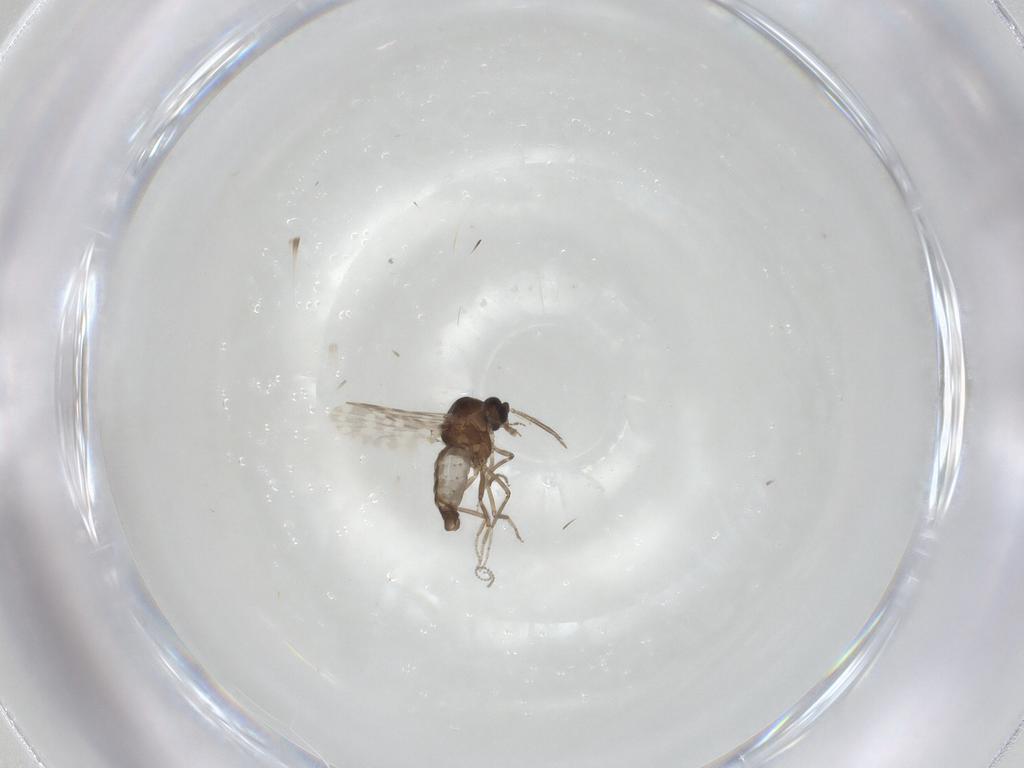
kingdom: Animalia
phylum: Arthropoda
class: Insecta
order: Diptera
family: Ceratopogonidae
